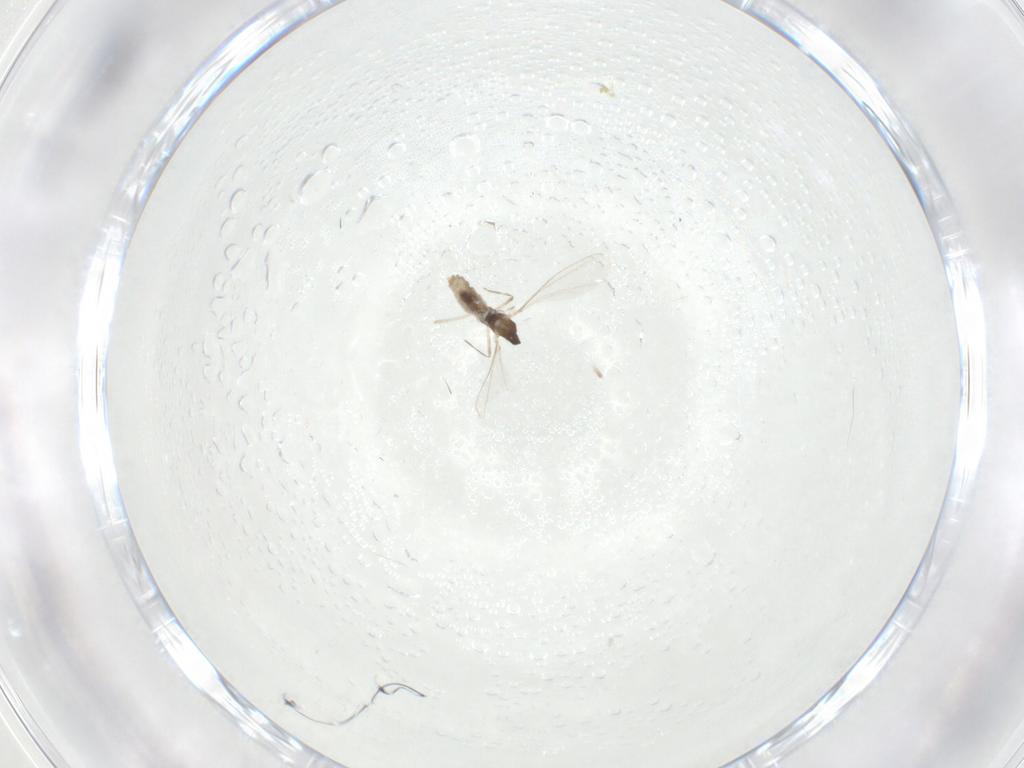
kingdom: Animalia
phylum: Arthropoda
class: Insecta
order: Diptera
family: Cecidomyiidae
